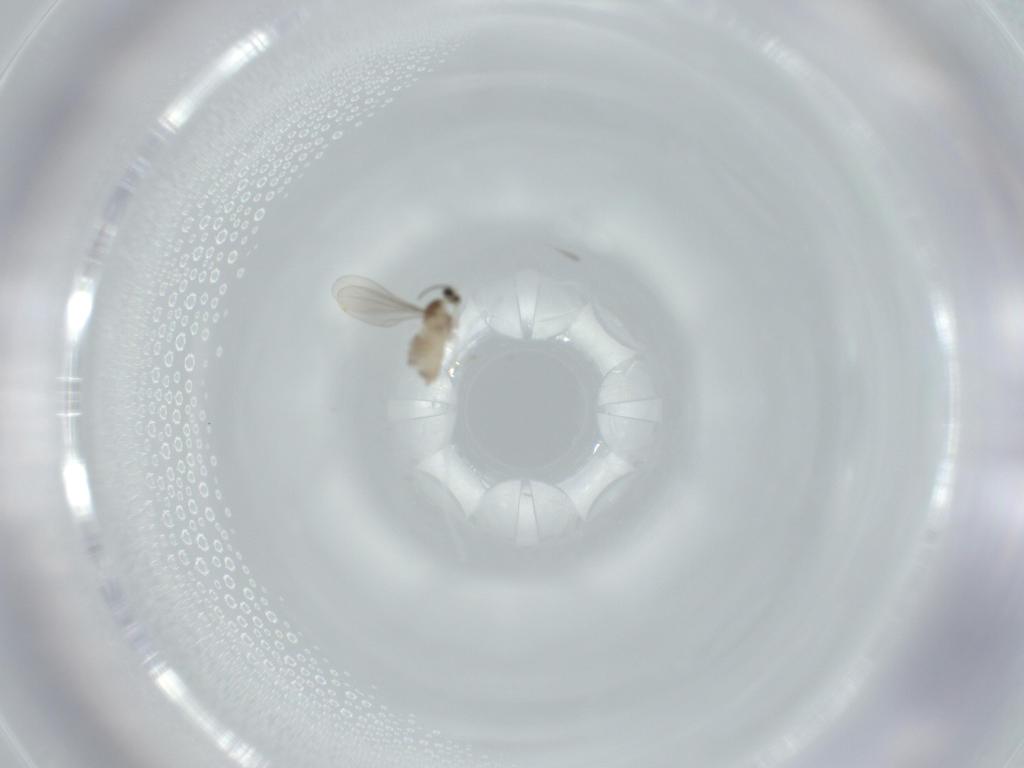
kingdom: Animalia
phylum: Arthropoda
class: Insecta
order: Diptera
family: Cecidomyiidae
